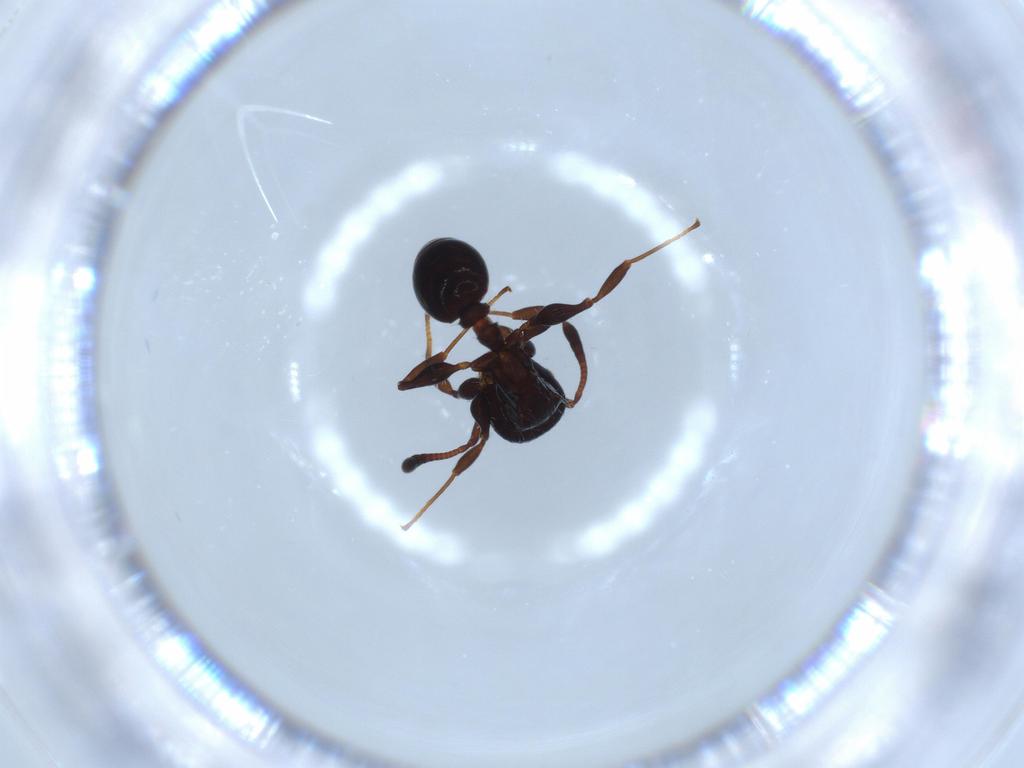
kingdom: Animalia
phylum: Arthropoda
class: Insecta
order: Hymenoptera
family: Formicidae
